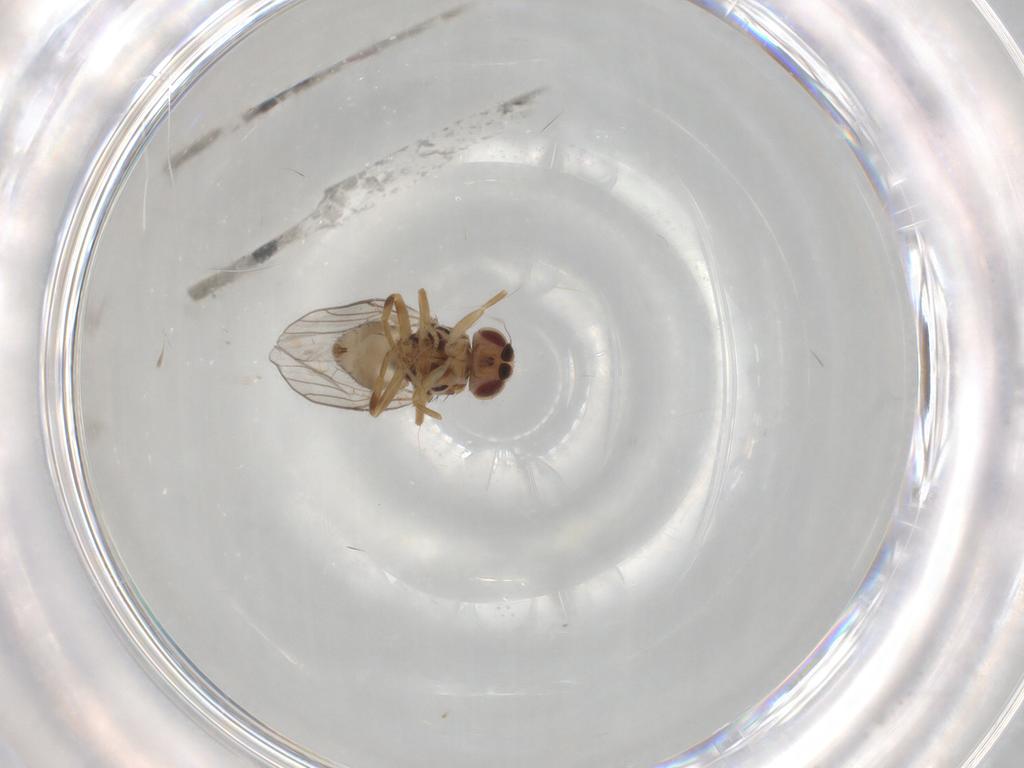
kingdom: Animalia
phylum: Arthropoda
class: Insecta
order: Diptera
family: Chloropidae
